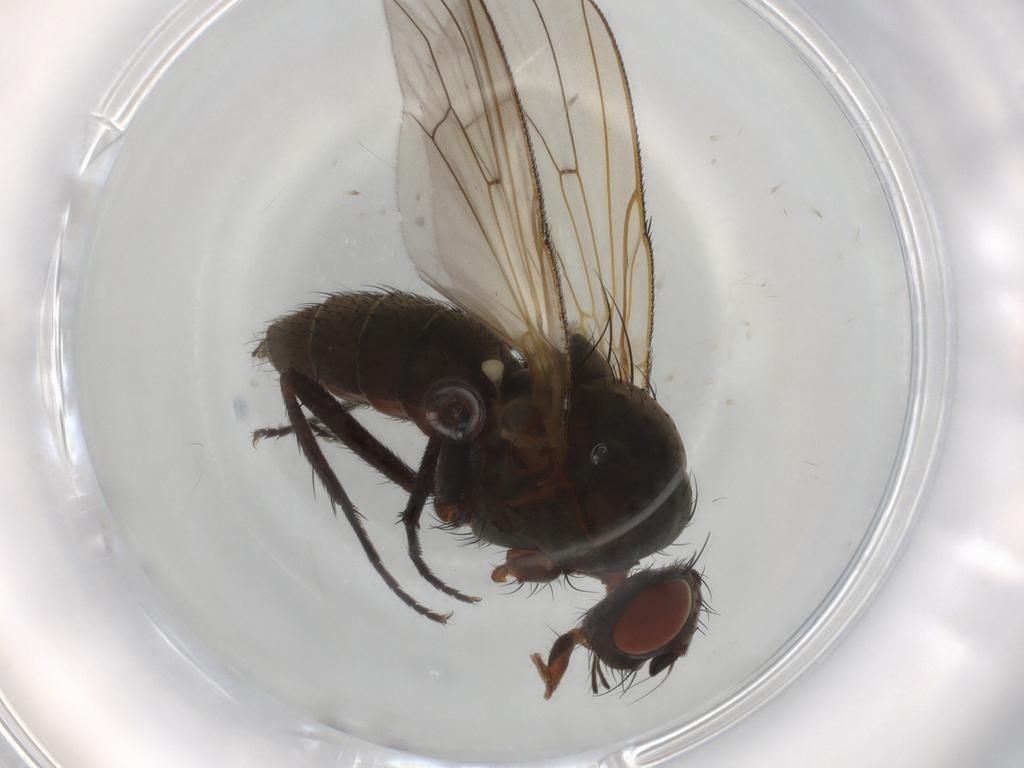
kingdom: Animalia
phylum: Arthropoda
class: Insecta
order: Diptera
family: Anthomyiidae
